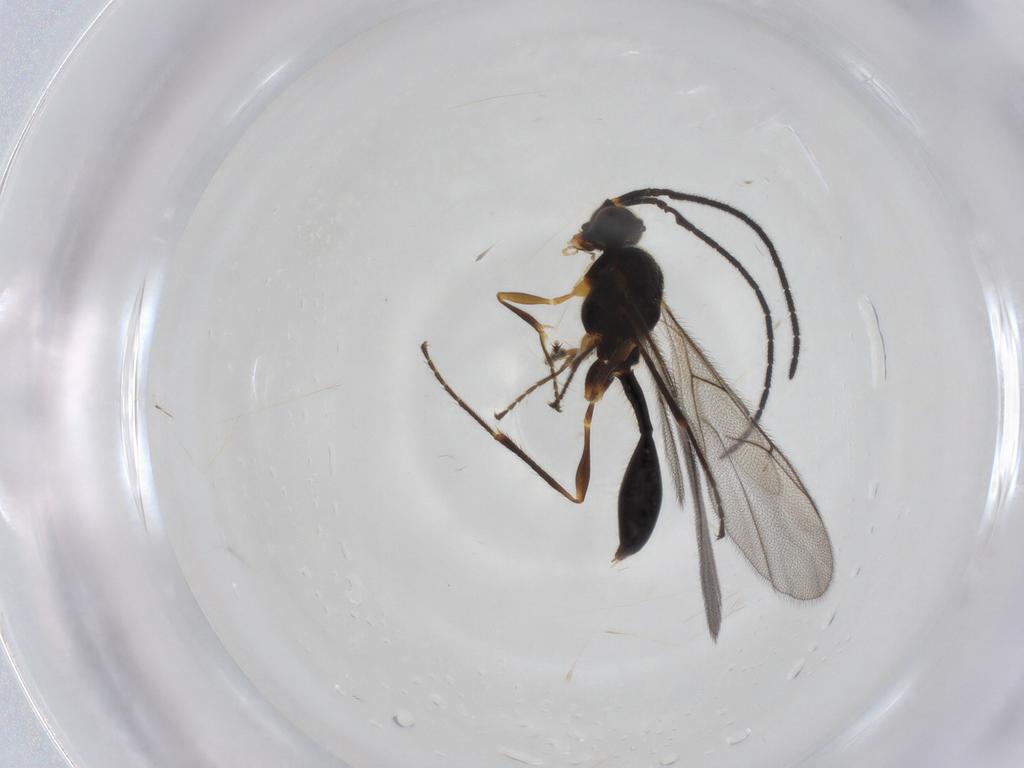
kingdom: Animalia
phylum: Arthropoda
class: Insecta
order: Hymenoptera
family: Diapriidae
